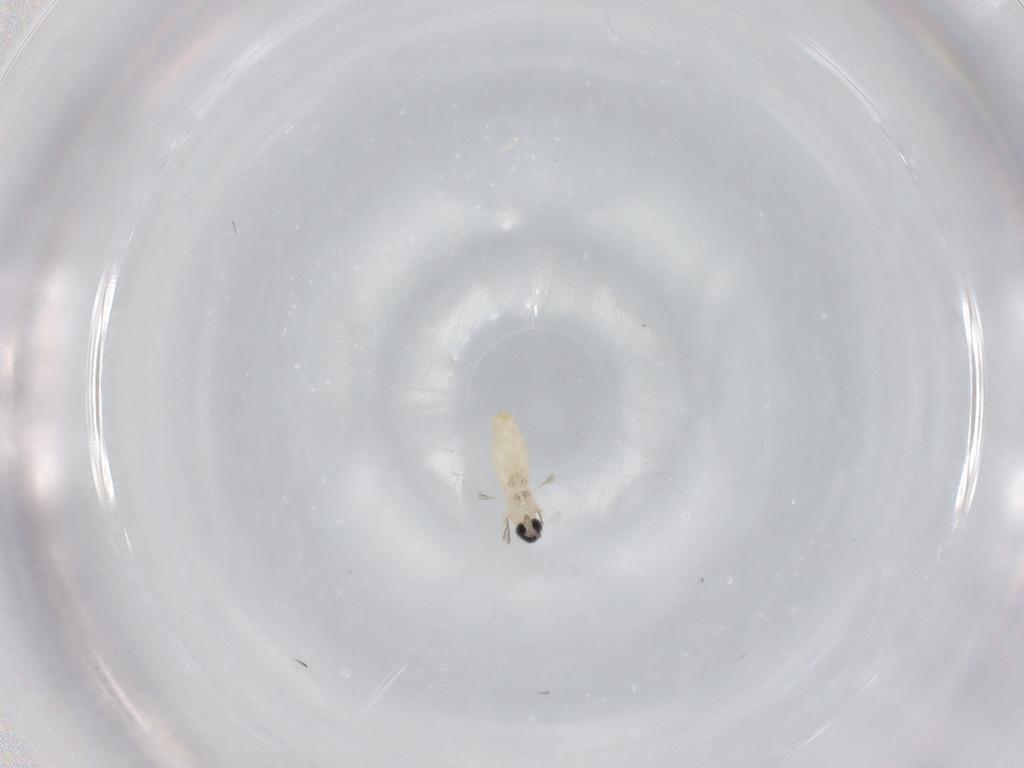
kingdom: Animalia
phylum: Arthropoda
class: Insecta
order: Diptera
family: Cecidomyiidae
